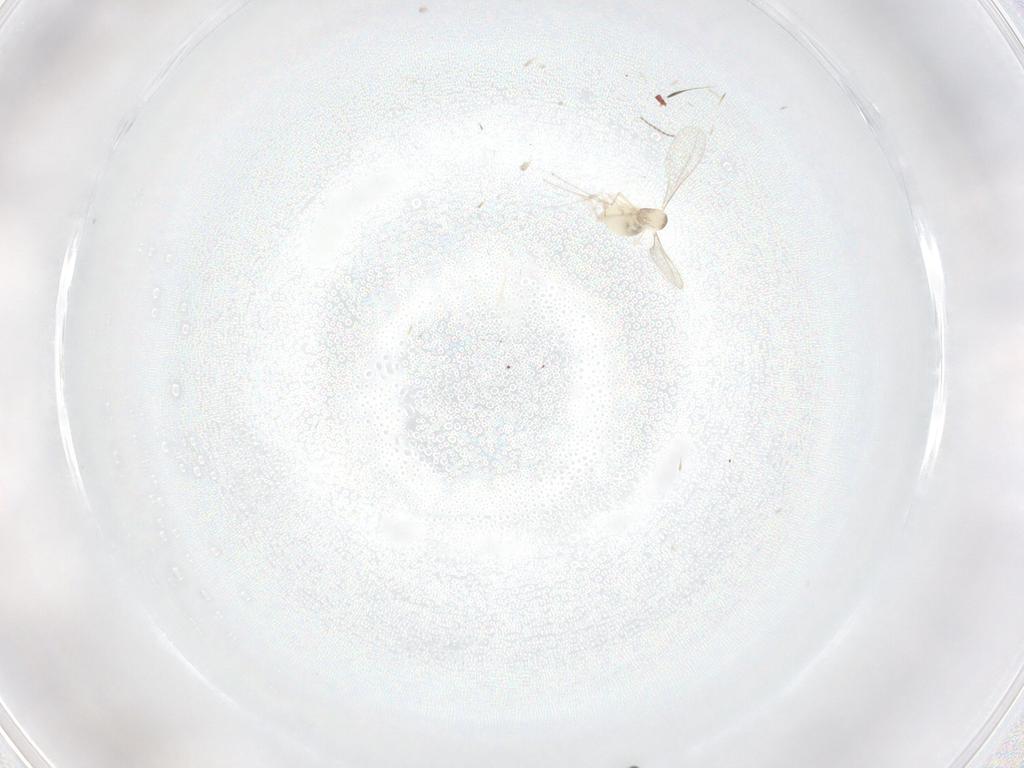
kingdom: Animalia
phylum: Arthropoda
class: Insecta
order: Diptera
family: Cecidomyiidae
